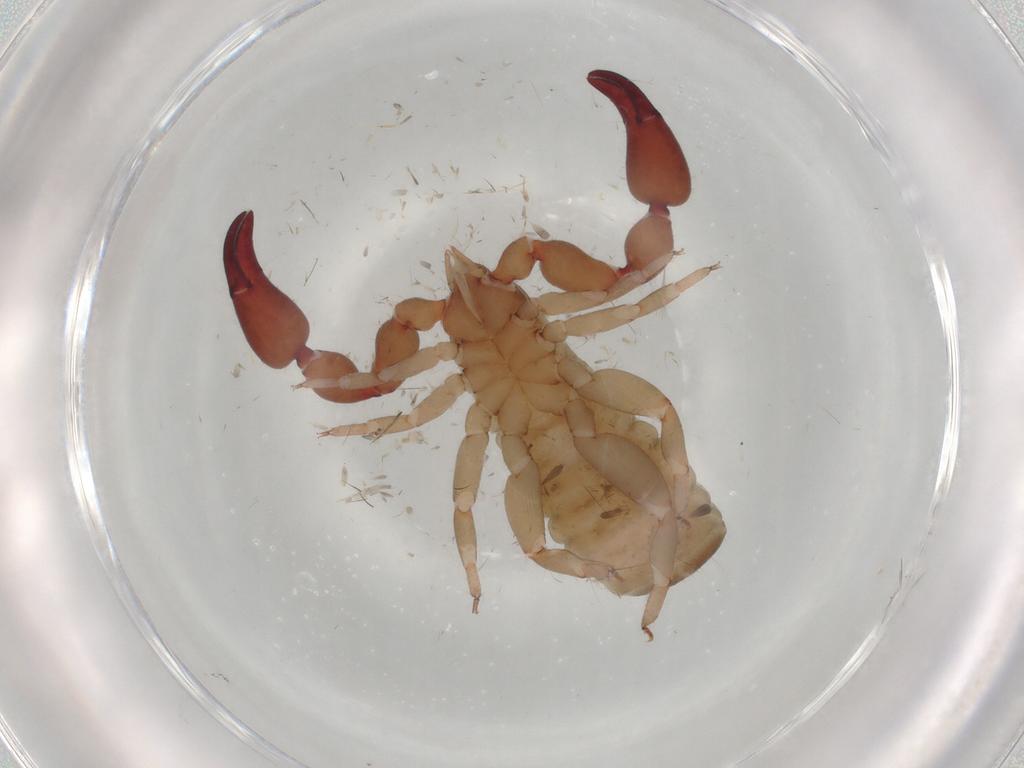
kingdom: Animalia
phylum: Arthropoda
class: Arachnida
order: Pseudoscorpiones
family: Atemnidae
